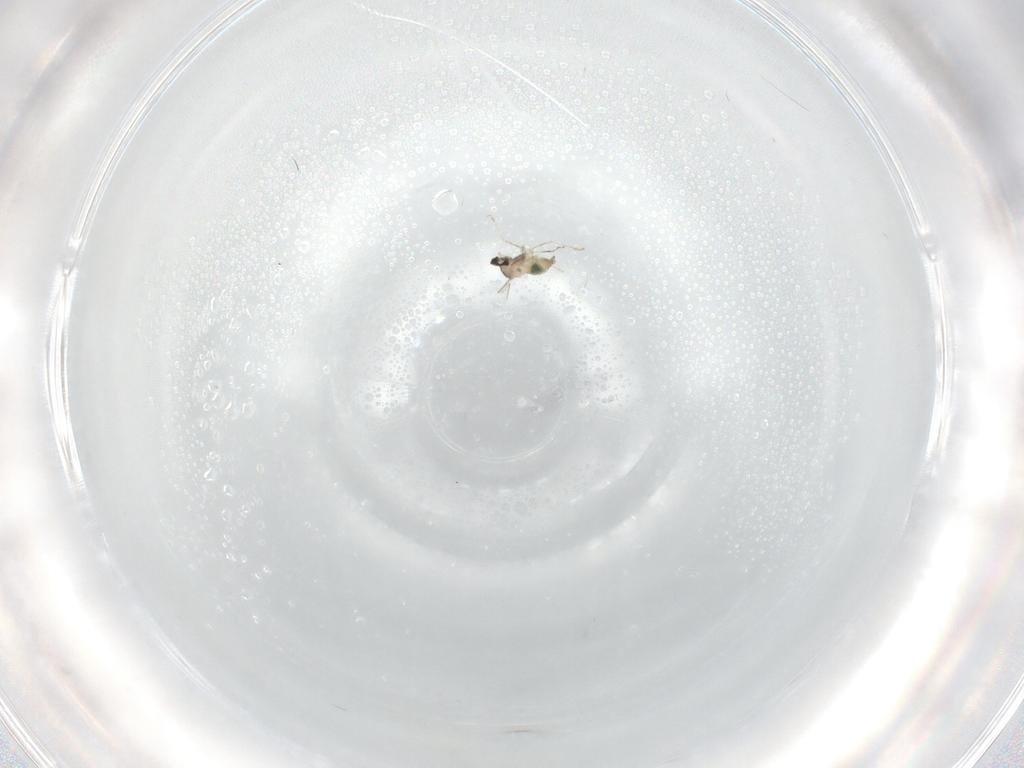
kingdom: Animalia
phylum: Arthropoda
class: Insecta
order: Diptera
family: Cecidomyiidae
